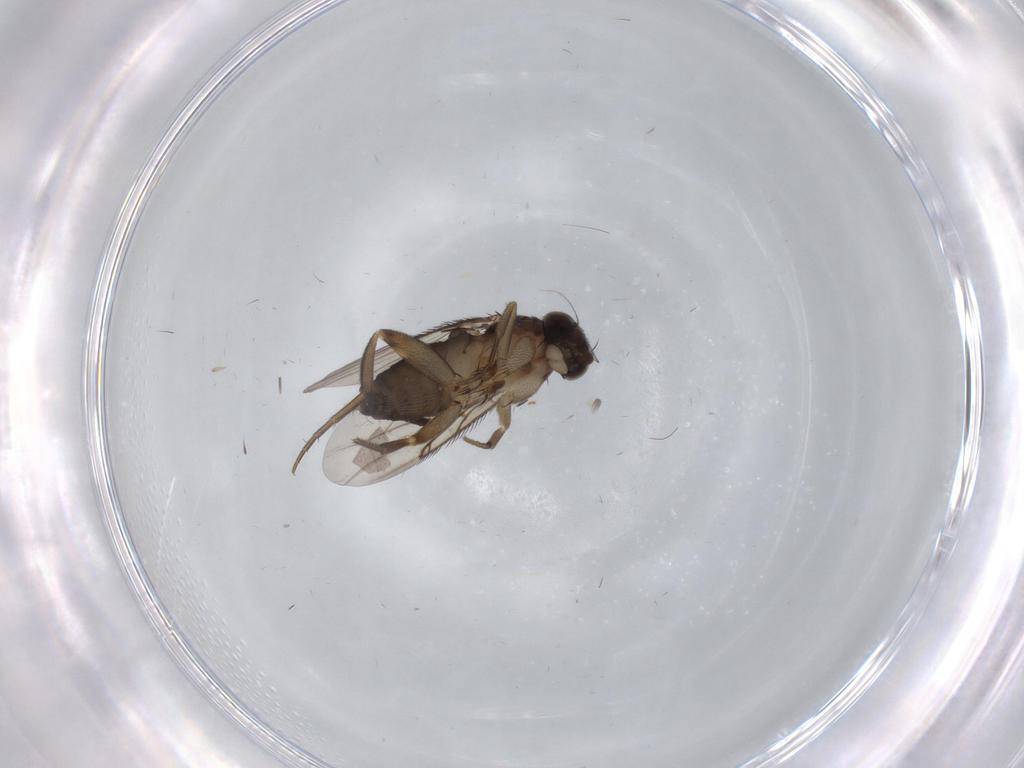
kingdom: Animalia
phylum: Arthropoda
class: Insecta
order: Diptera
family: Phoridae
